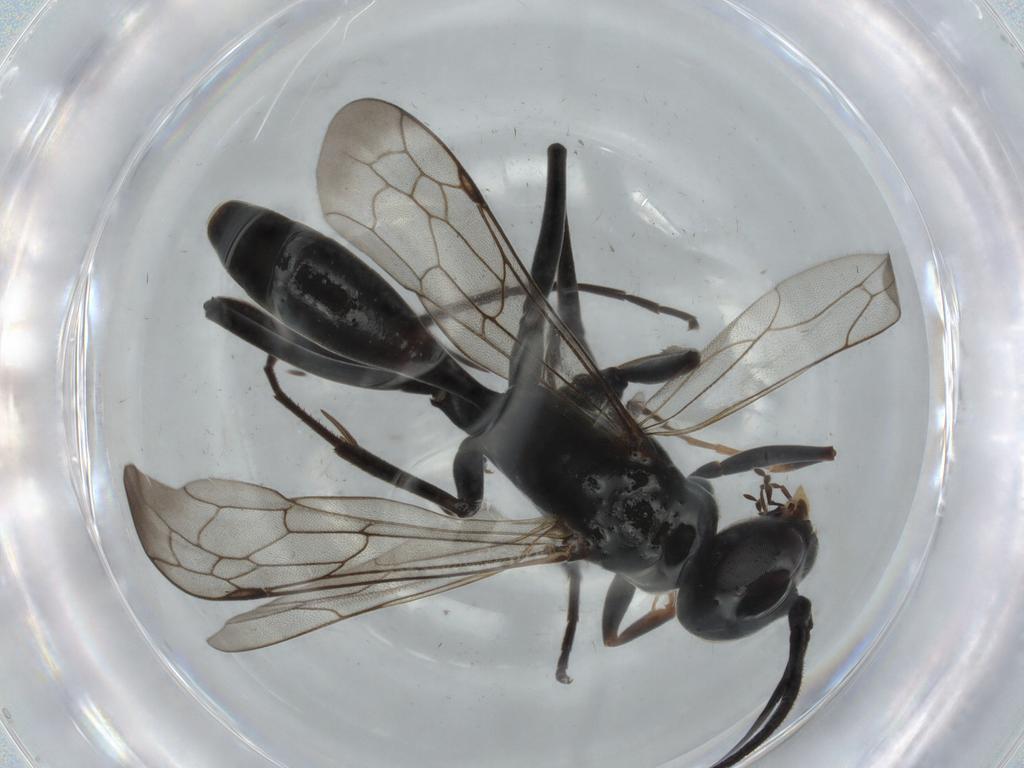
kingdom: Animalia
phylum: Arthropoda
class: Insecta
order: Hymenoptera
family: Pompilidae
